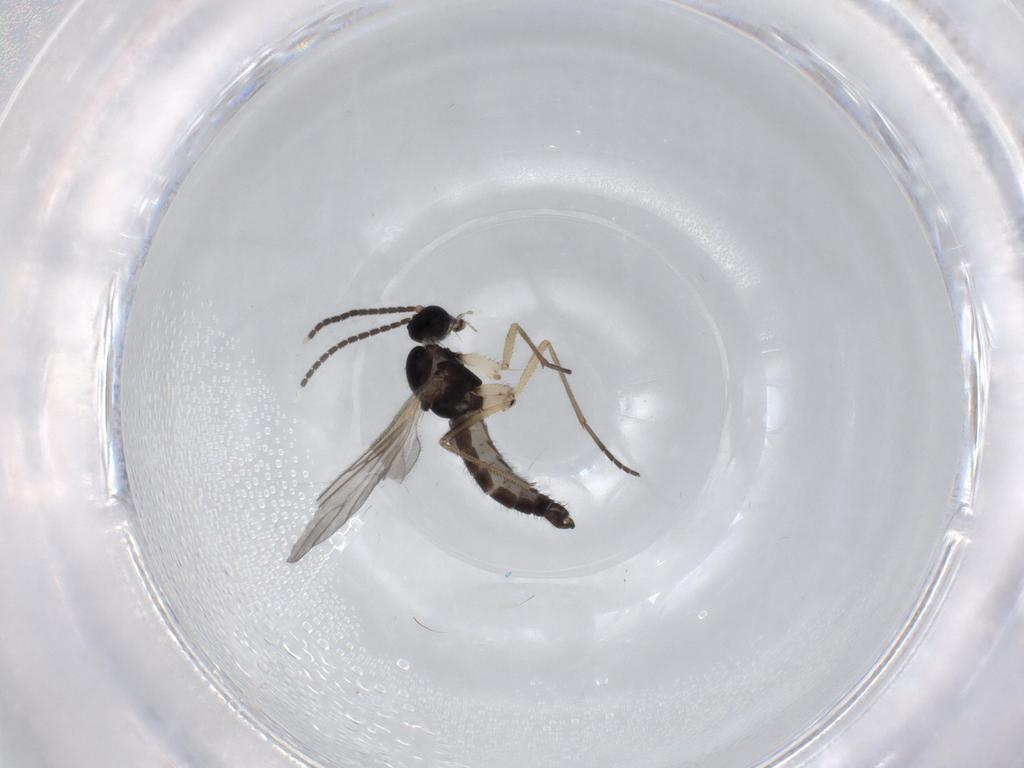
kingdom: Animalia
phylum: Arthropoda
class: Insecta
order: Diptera
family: Sciaridae
